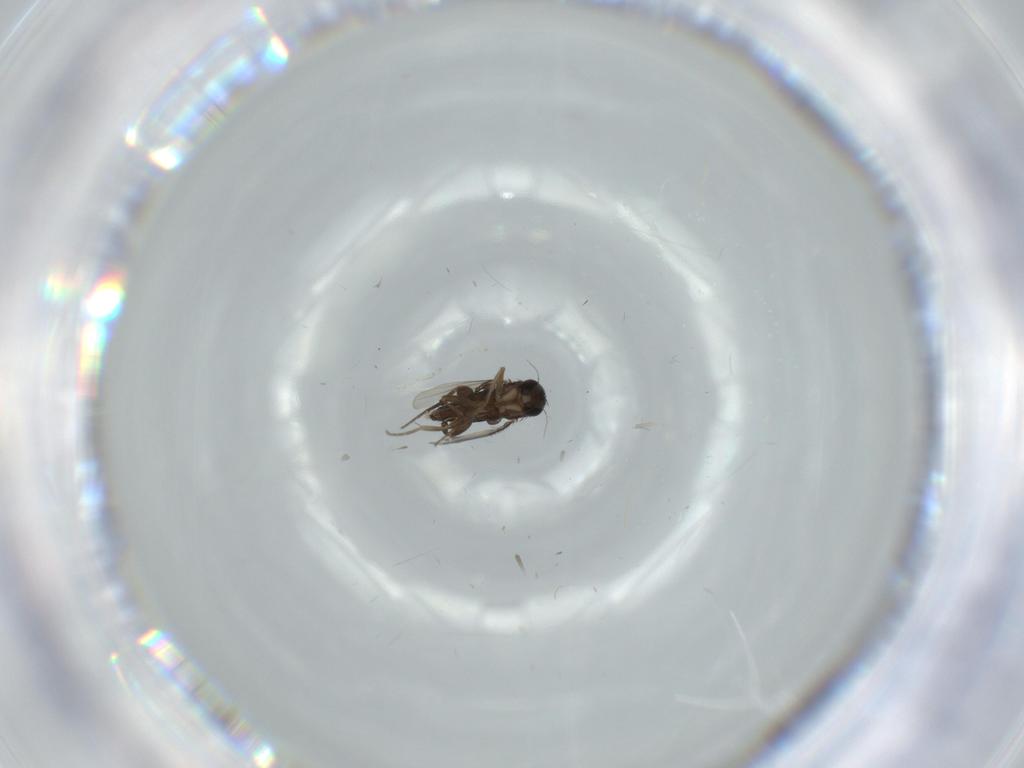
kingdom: Animalia
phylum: Arthropoda
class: Insecta
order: Diptera
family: Phoridae
